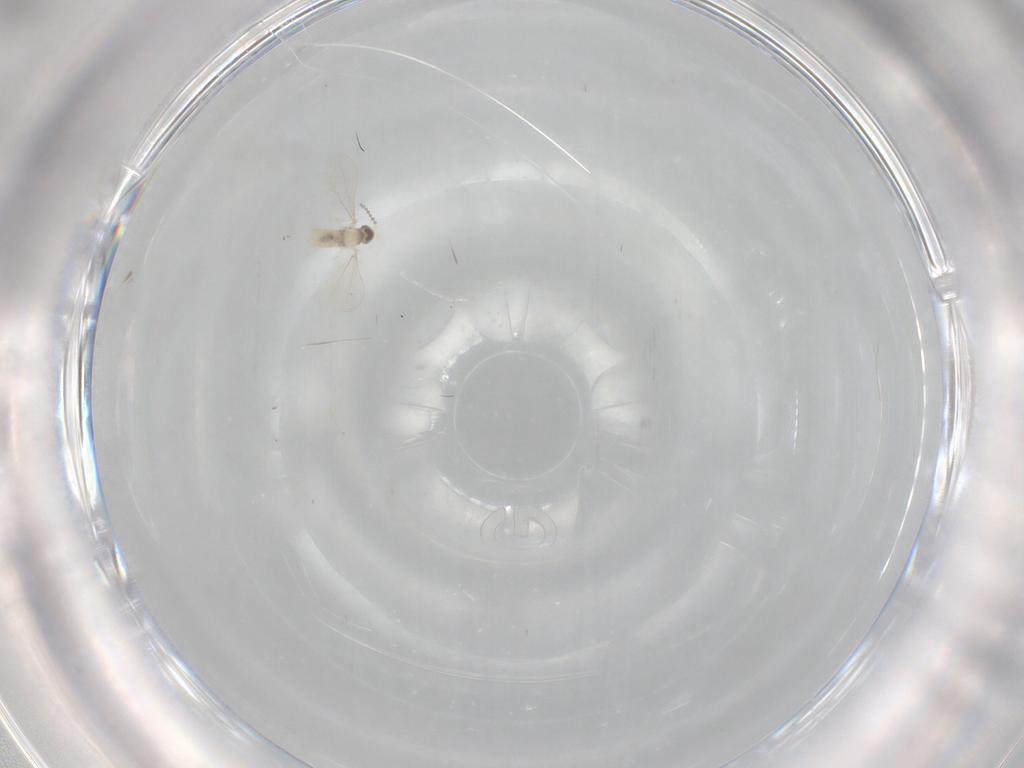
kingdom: Animalia
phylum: Arthropoda
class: Insecta
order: Diptera
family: Cecidomyiidae
